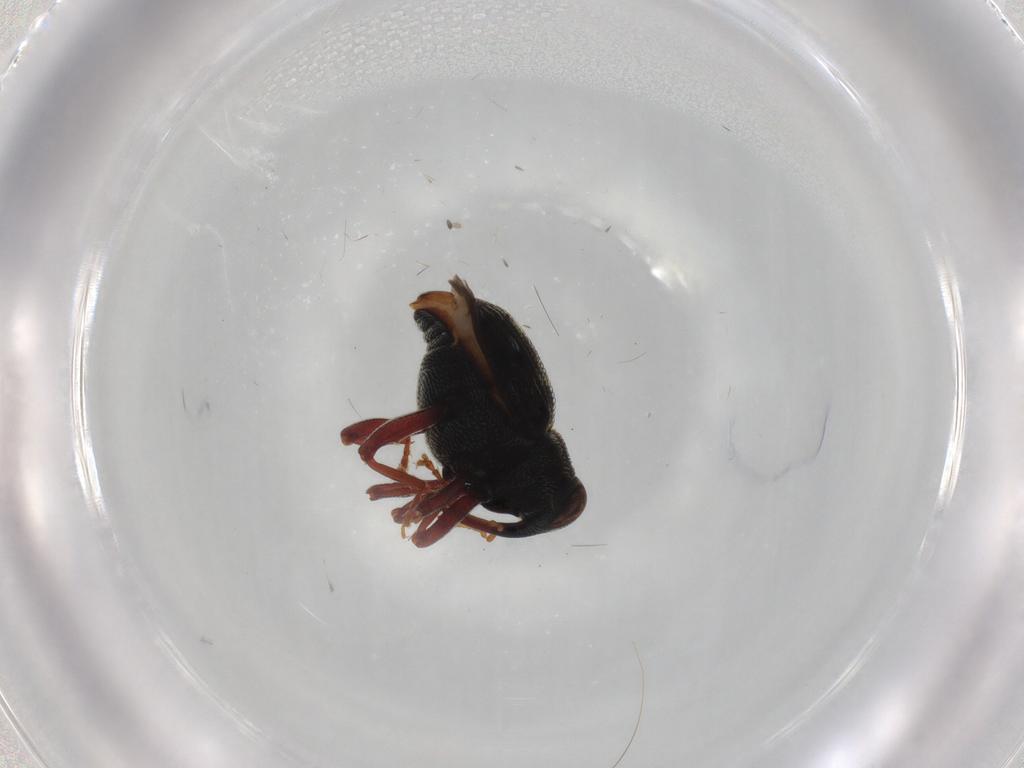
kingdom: Animalia
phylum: Arthropoda
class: Insecta
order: Coleoptera
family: Curculionidae
